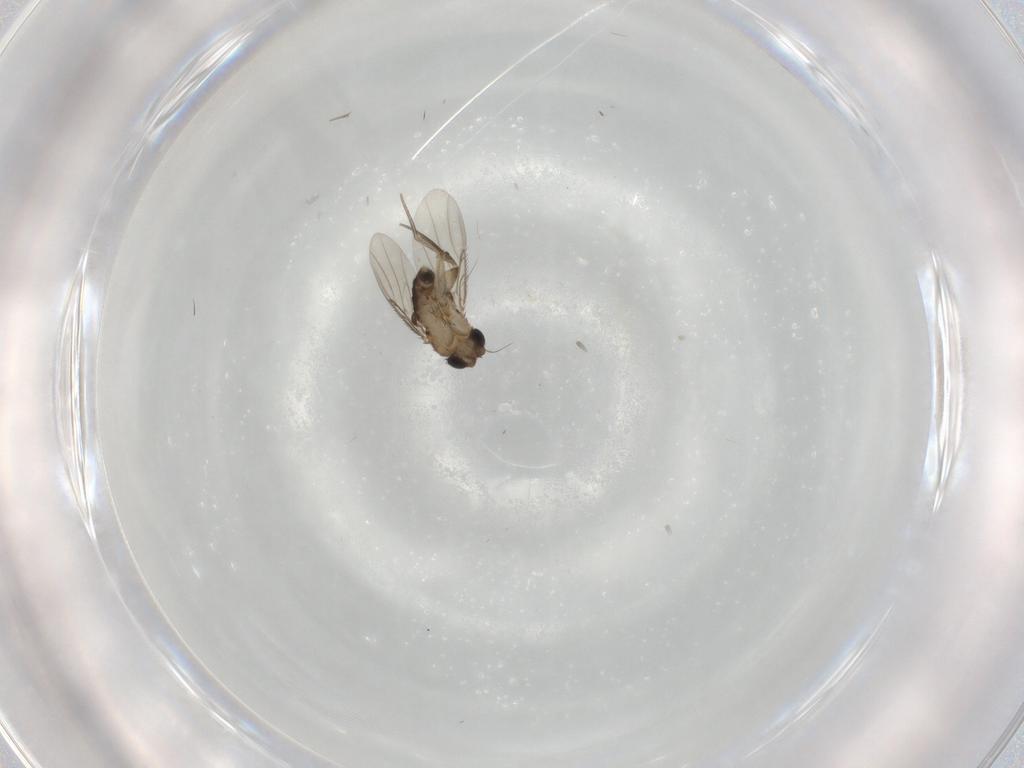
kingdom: Animalia
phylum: Arthropoda
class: Insecta
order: Diptera
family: Phoridae
